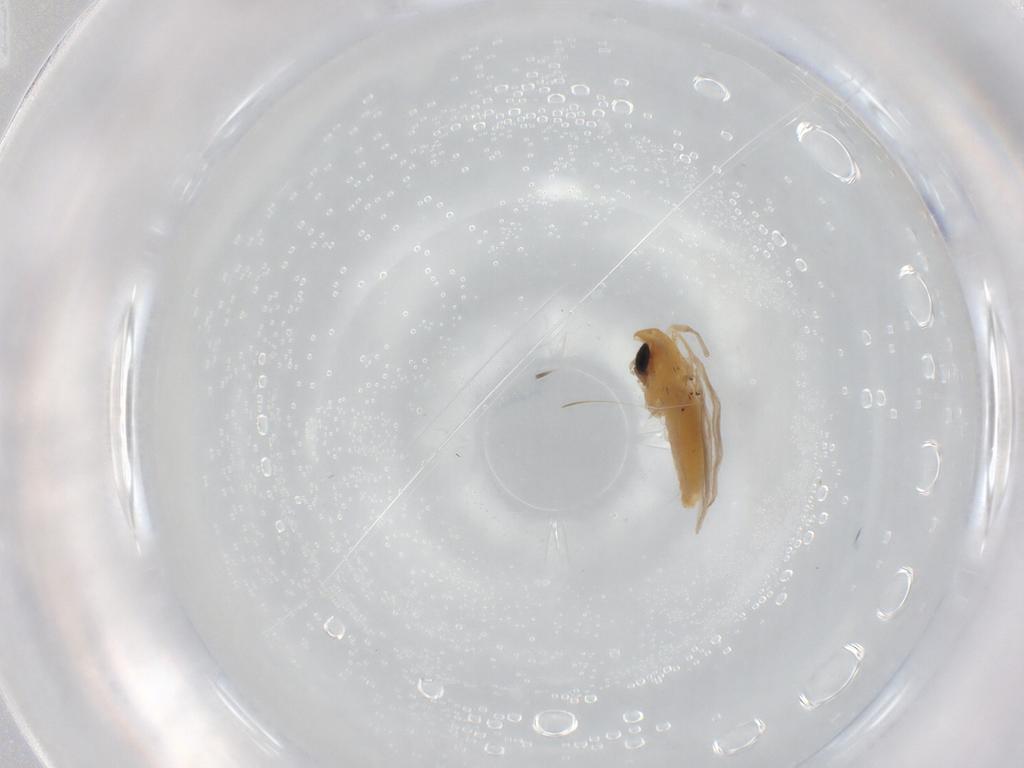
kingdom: Animalia
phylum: Arthropoda
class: Insecta
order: Diptera
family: Chironomidae
